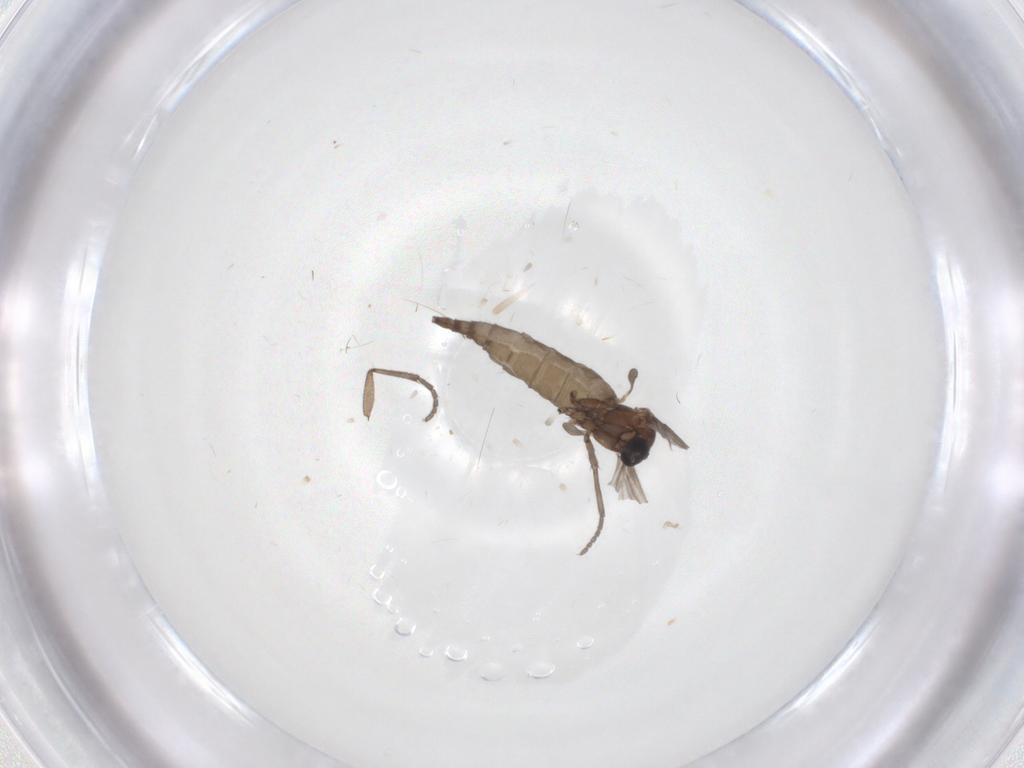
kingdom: Animalia
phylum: Arthropoda
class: Insecta
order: Diptera
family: Sciaridae
